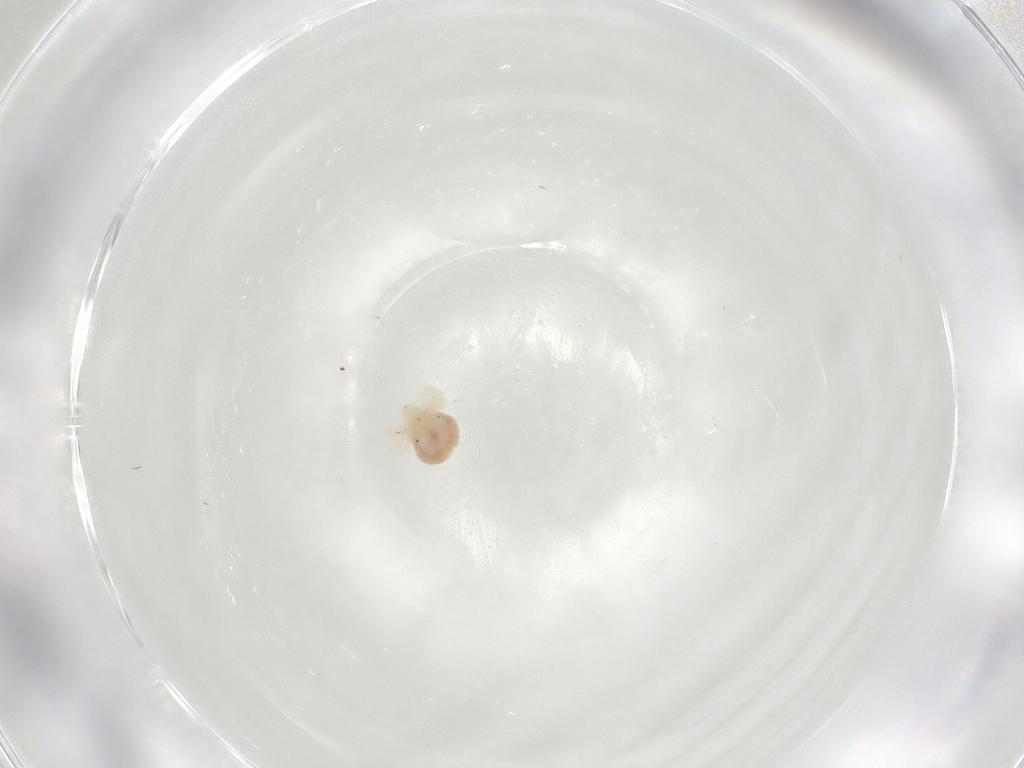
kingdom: Animalia
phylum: Arthropoda
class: Arachnida
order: Trombidiformes
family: Anystidae
